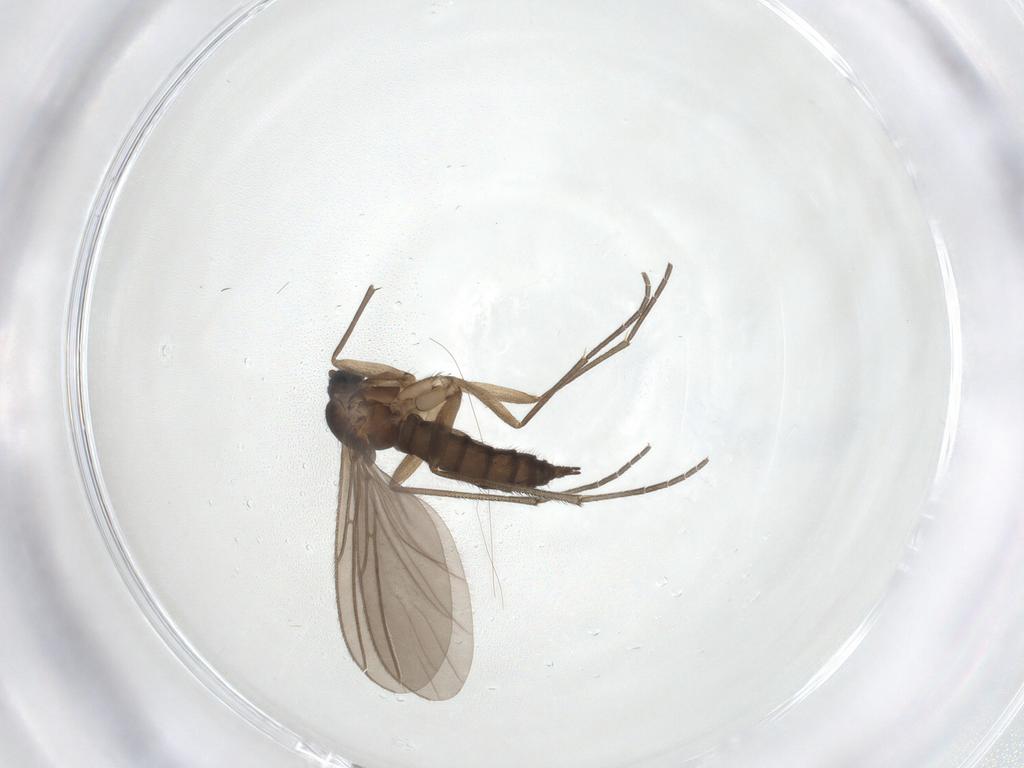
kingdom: Animalia
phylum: Arthropoda
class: Insecta
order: Diptera
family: Sciaridae
